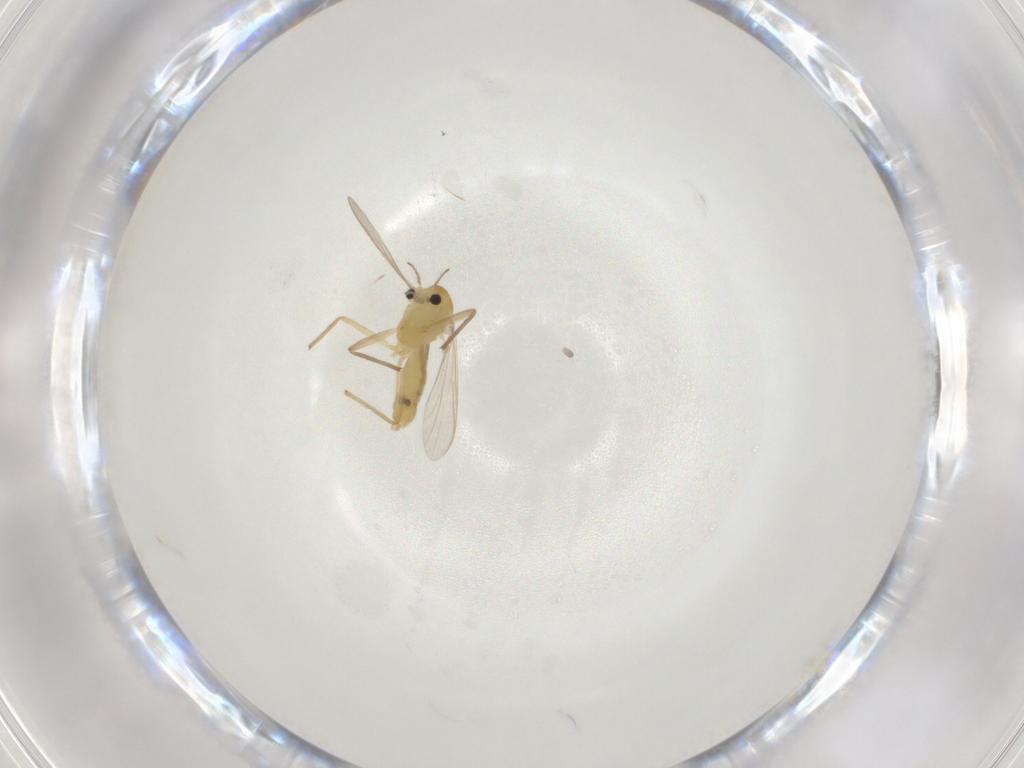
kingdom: Animalia
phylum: Arthropoda
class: Insecta
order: Diptera
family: Chironomidae
